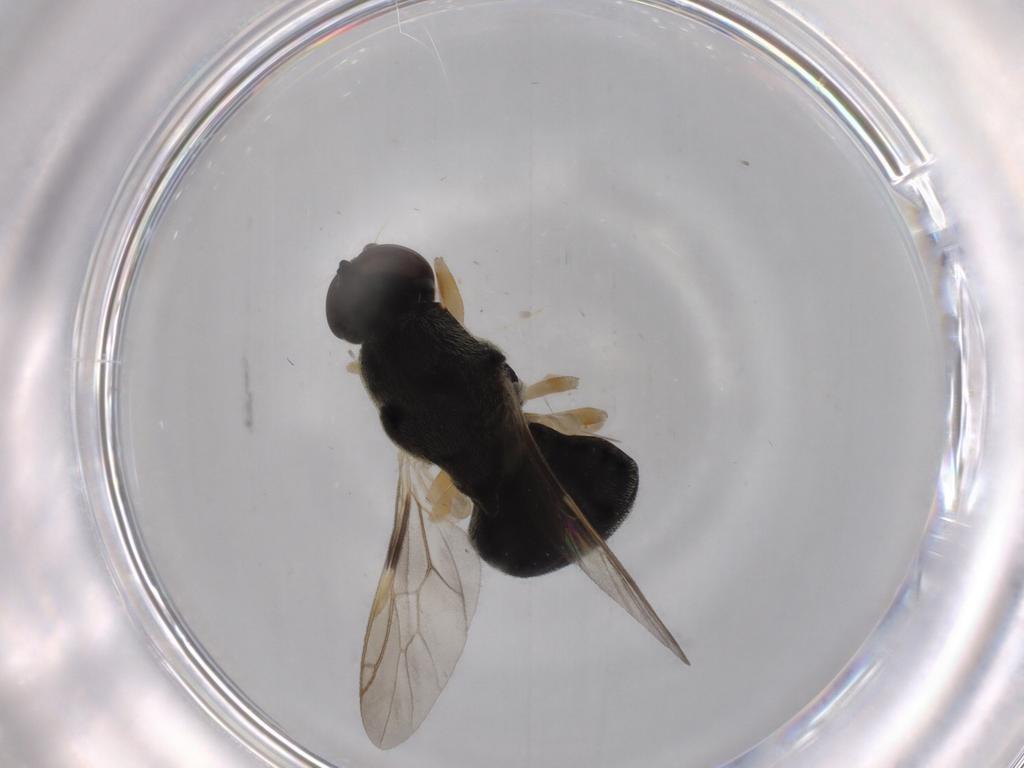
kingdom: Animalia
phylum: Arthropoda
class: Insecta
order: Diptera
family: Stratiomyidae
